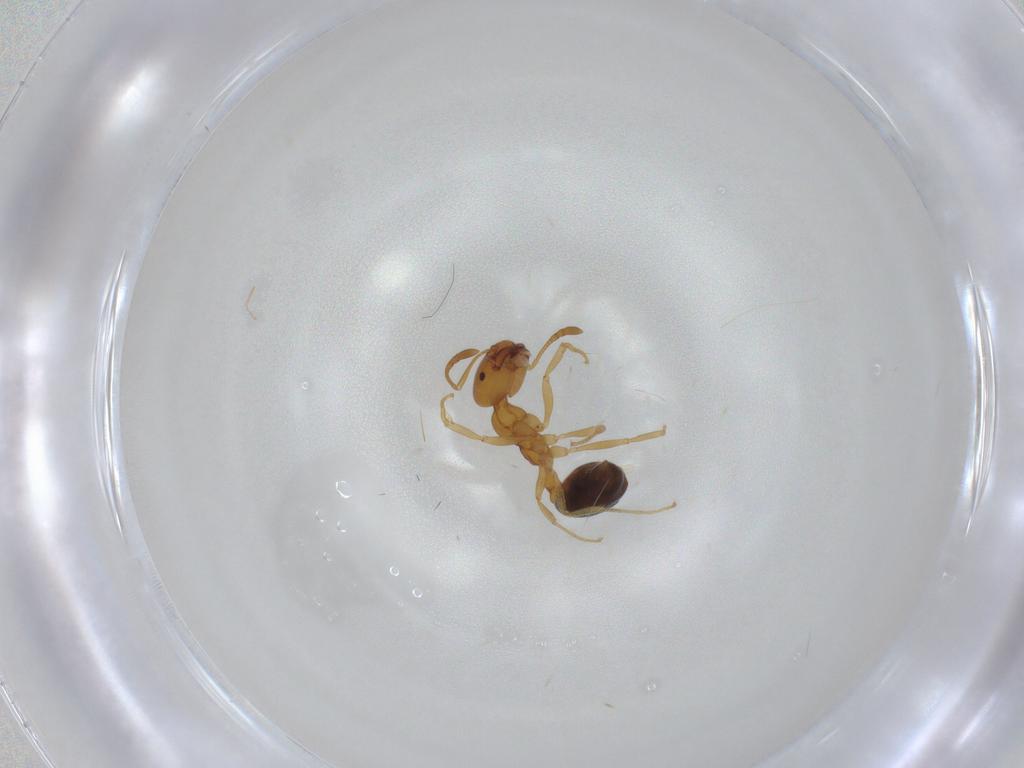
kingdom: Animalia
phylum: Arthropoda
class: Insecta
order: Hymenoptera
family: Formicidae
